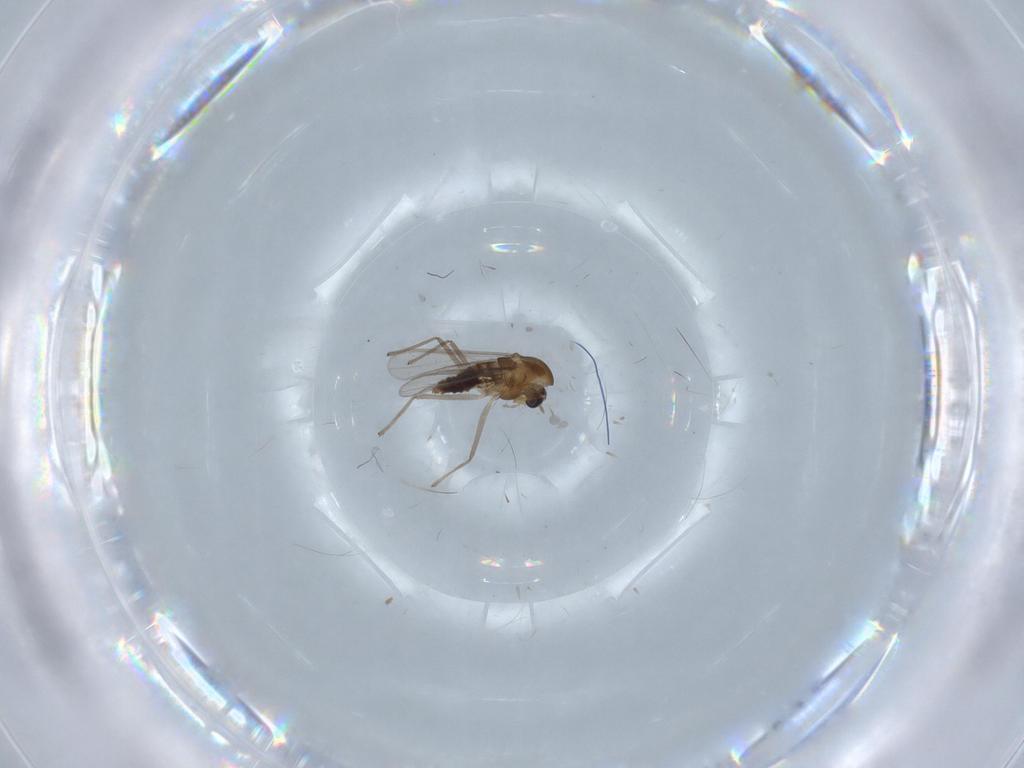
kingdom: Animalia
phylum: Arthropoda
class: Insecta
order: Diptera
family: Chironomidae
